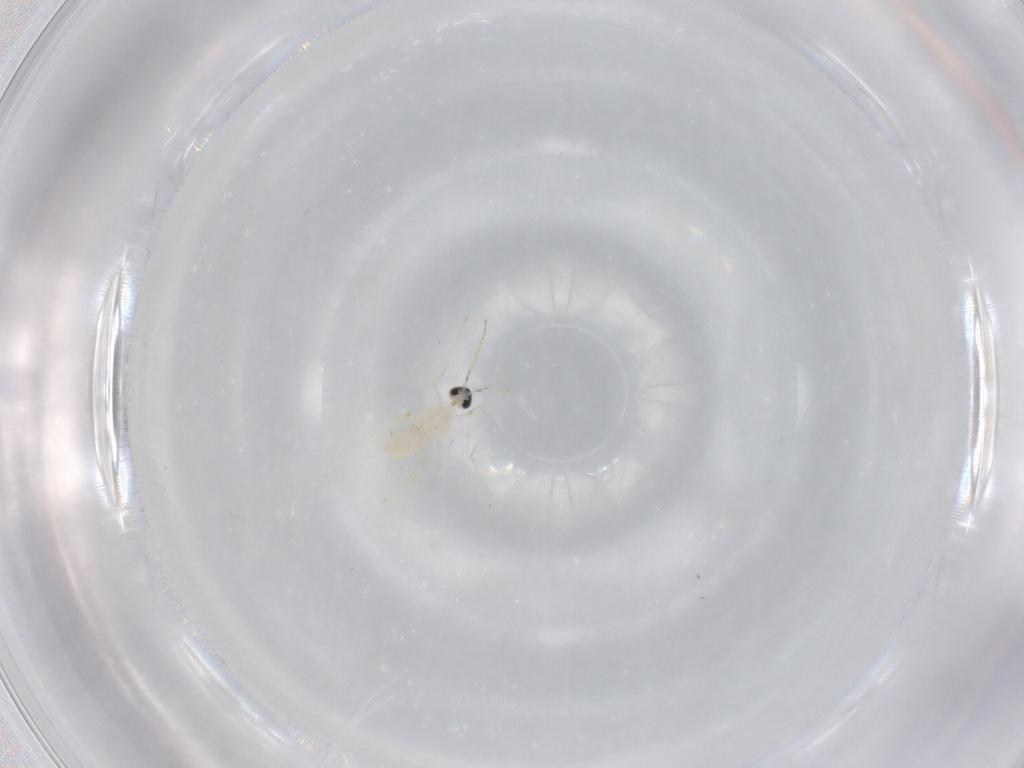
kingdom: Animalia
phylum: Arthropoda
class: Insecta
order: Diptera
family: Cecidomyiidae
